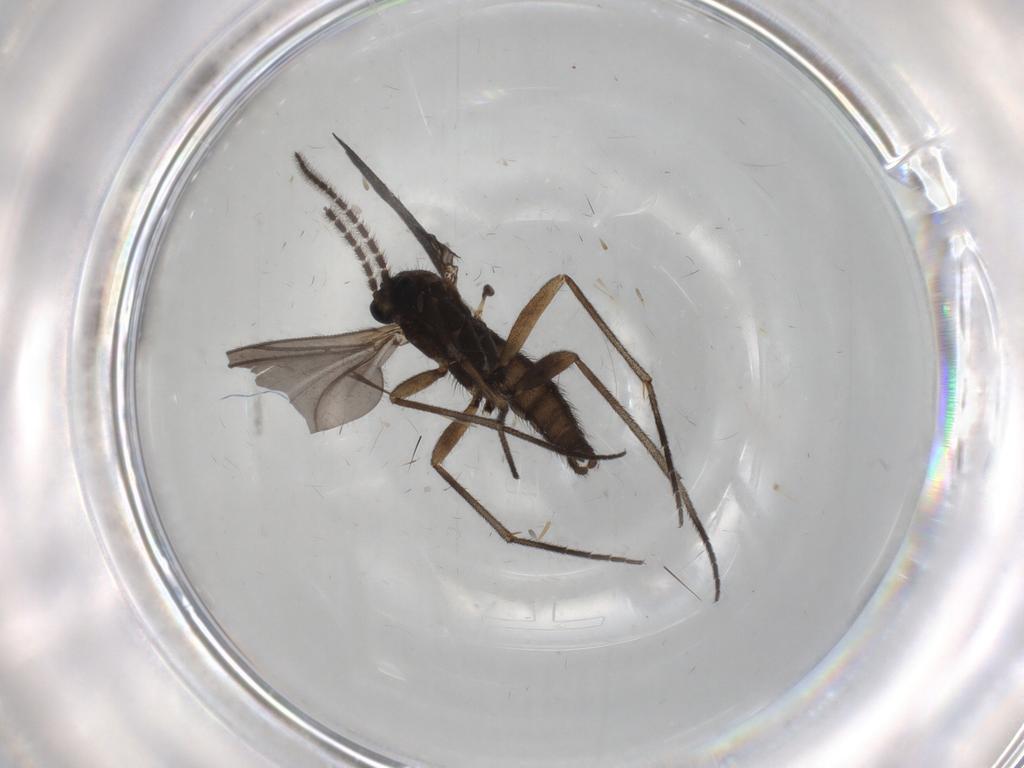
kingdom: Animalia
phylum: Arthropoda
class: Insecta
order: Diptera
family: Sciaridae
